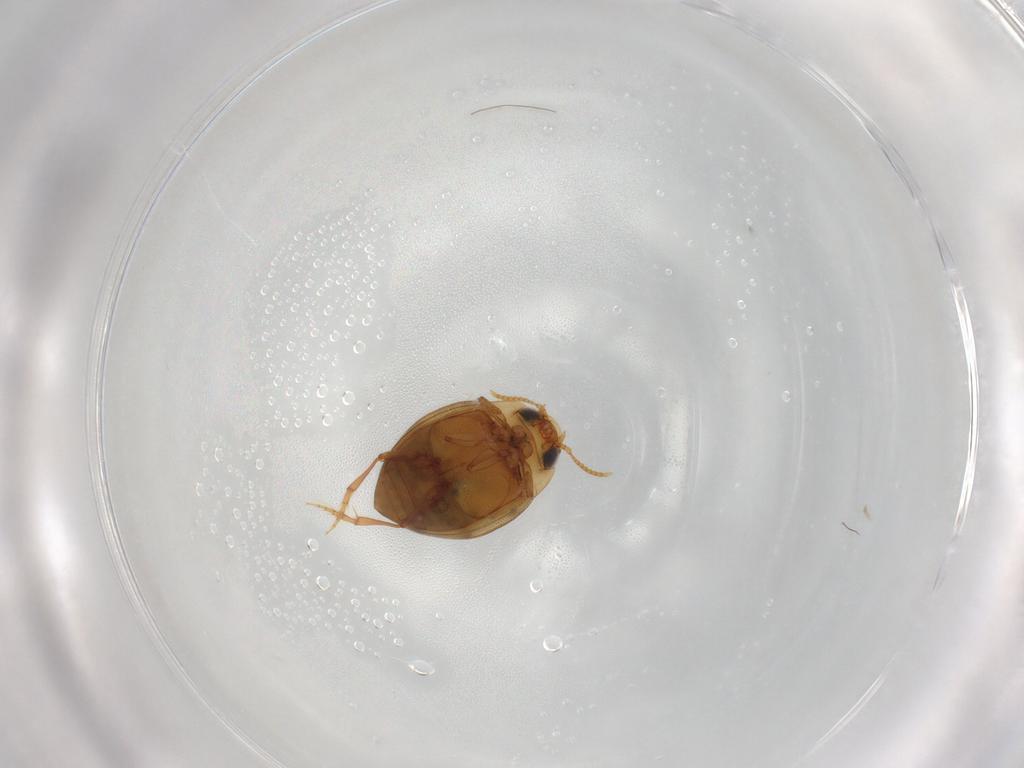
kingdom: Animalia
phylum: Arthropoda
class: Insecta
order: Coleoptera
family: Dytiscidae
